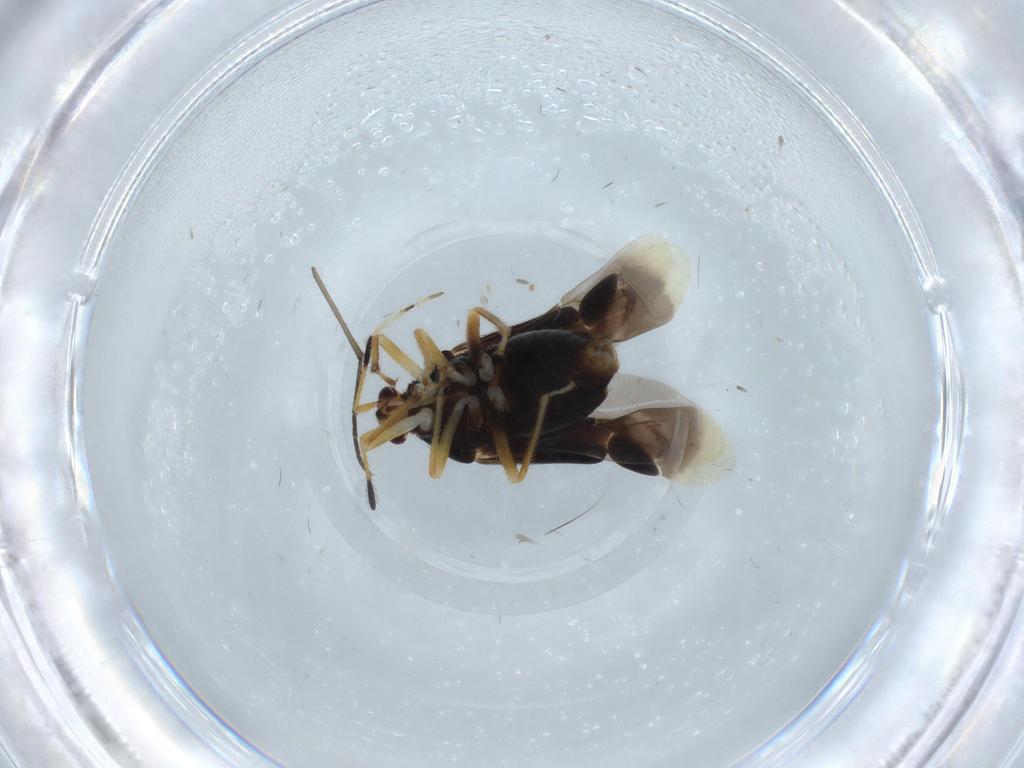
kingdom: Animalia
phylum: Arthropoda
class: Insecta
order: Hemiptera
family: Miridae
